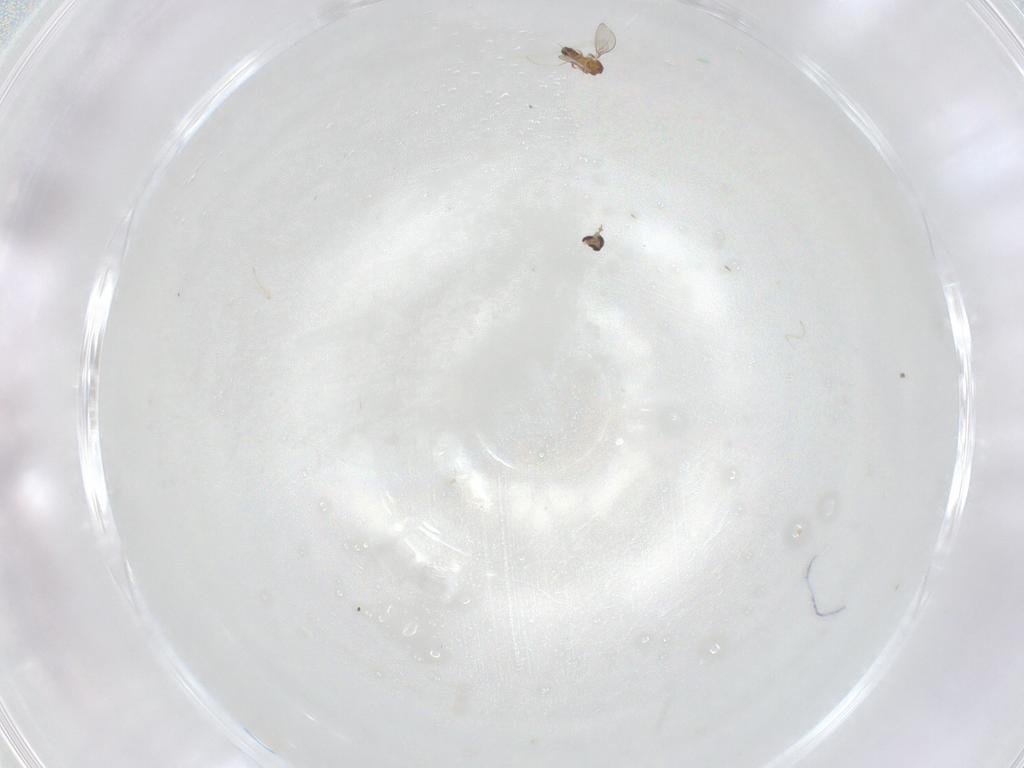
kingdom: Animalia
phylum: Arthropoda
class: Insecta
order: Diptera
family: Cecidomyiidae
